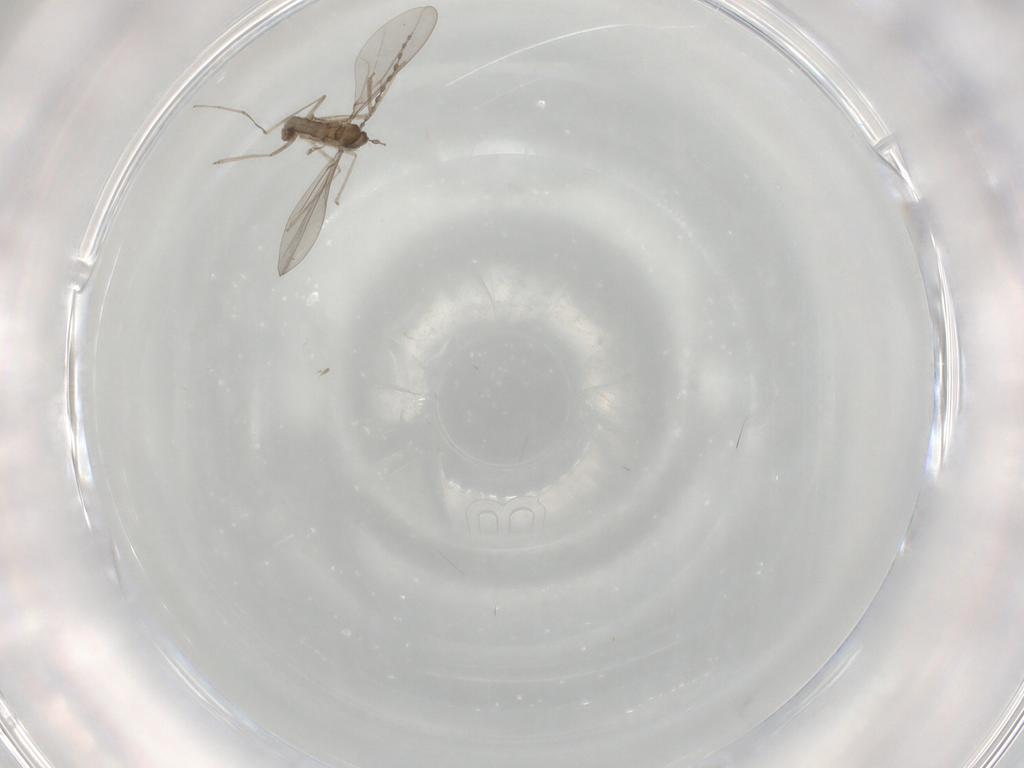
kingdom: Animalia
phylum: Arthropoda
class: Insecta
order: Diptera
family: Cecidomyiidae
